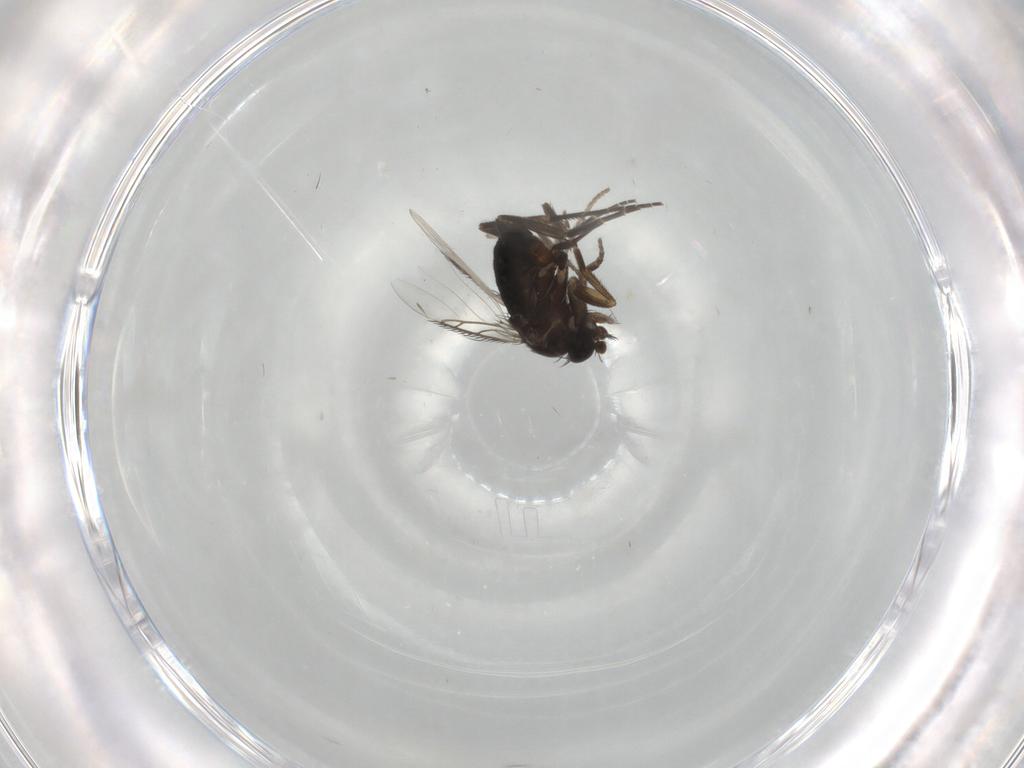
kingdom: Animalia
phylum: Arthropoda
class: Insecta
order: Diptera
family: Phoridae
